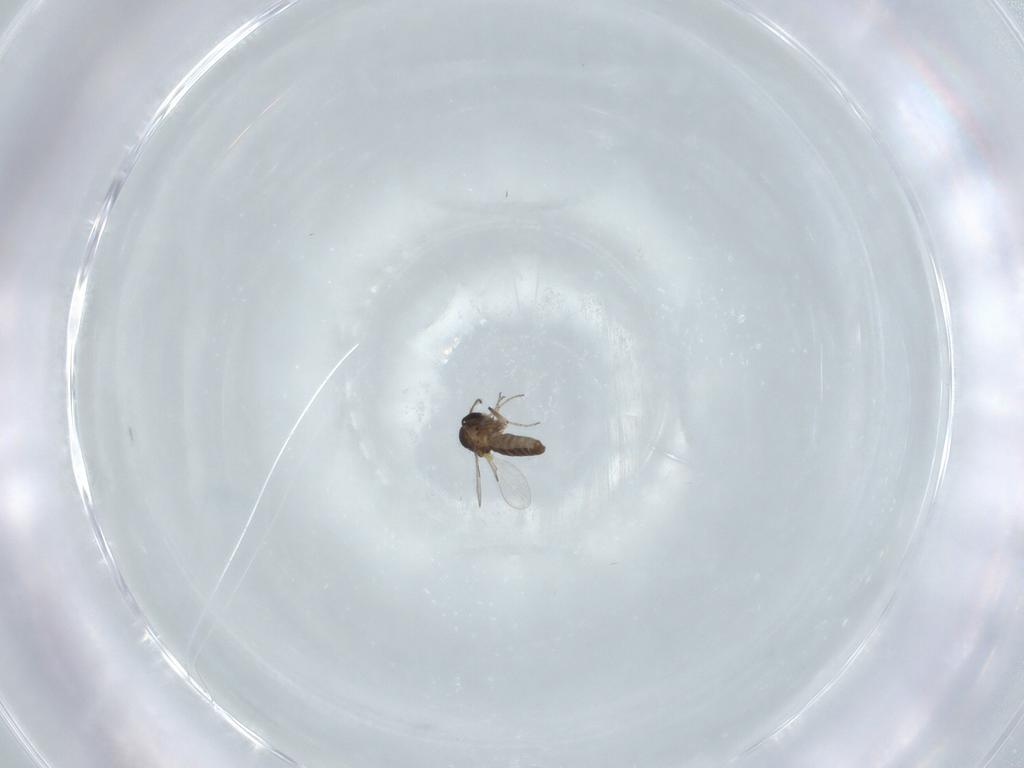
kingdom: Animalia
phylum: Arthropoda
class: Insecta
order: Diptera
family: Ceratopogonidae
